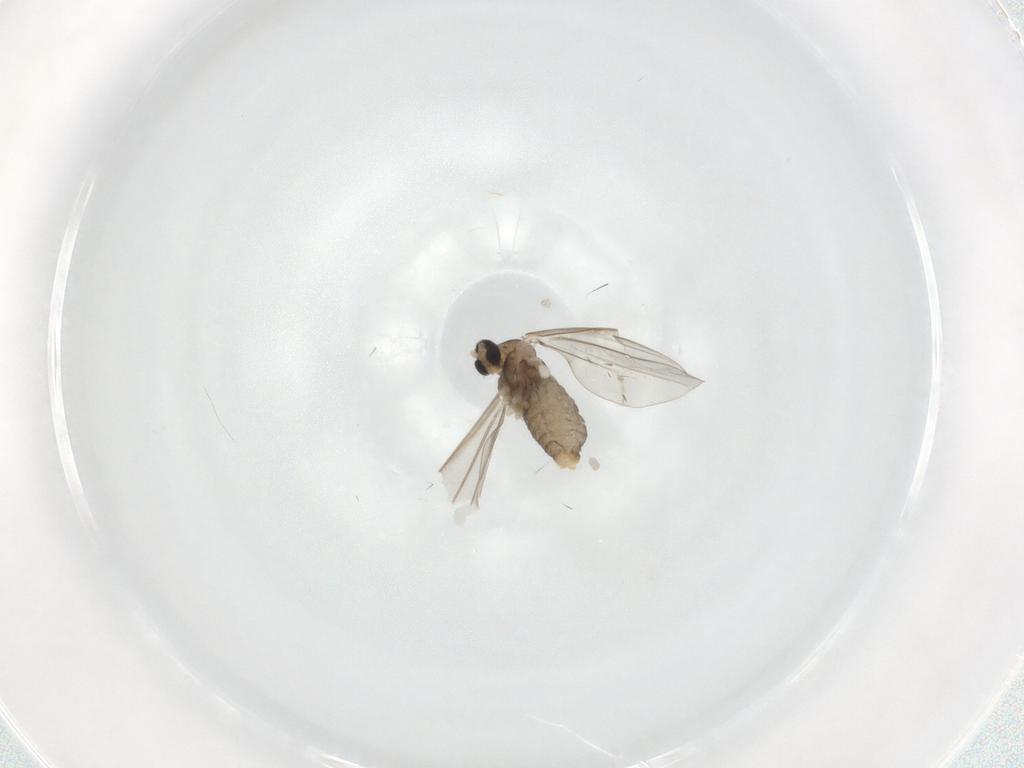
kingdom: Animalia
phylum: Arthropoda
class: Insecta
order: Diptera
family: Cecidomyiidae
